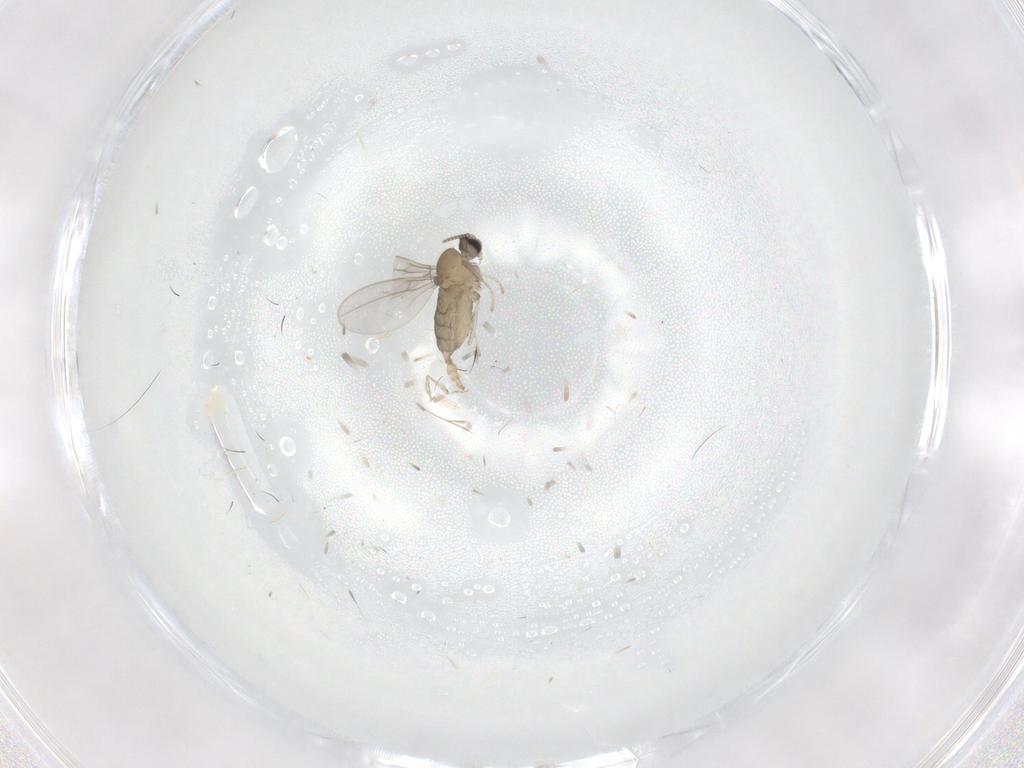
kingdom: Animalia
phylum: Arthropoda
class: Insecta
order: Diptera
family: Cecidomyiidae
